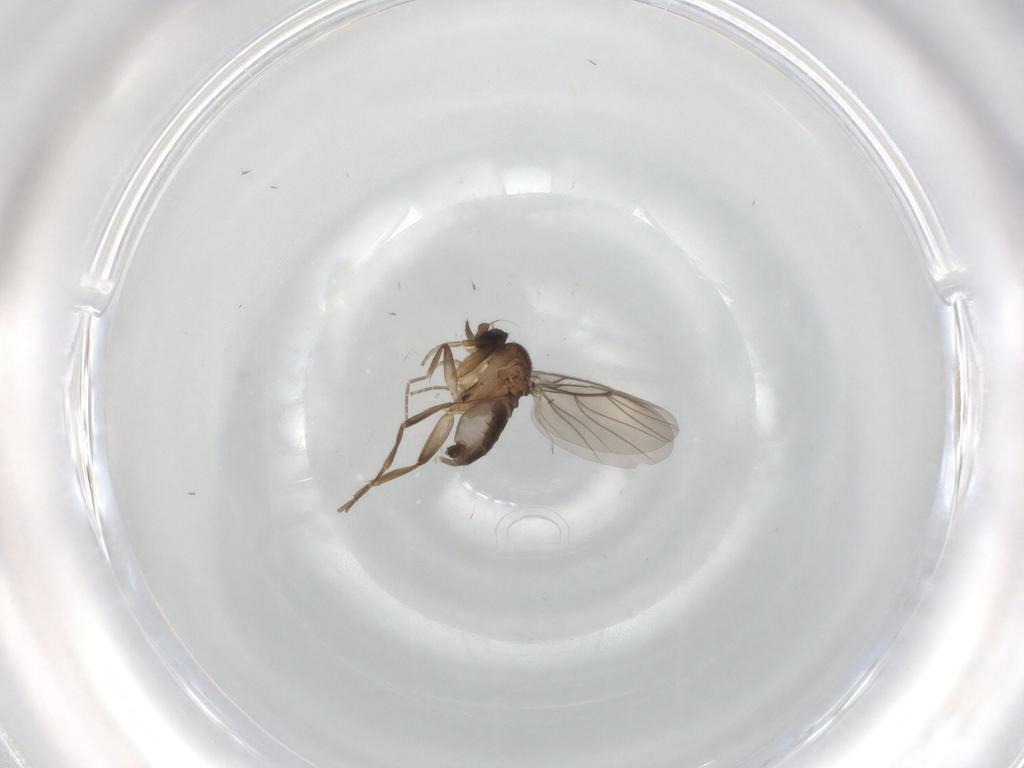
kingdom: Animalia
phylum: Arthropoda
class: Insecta
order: Diptera
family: Phoridae
